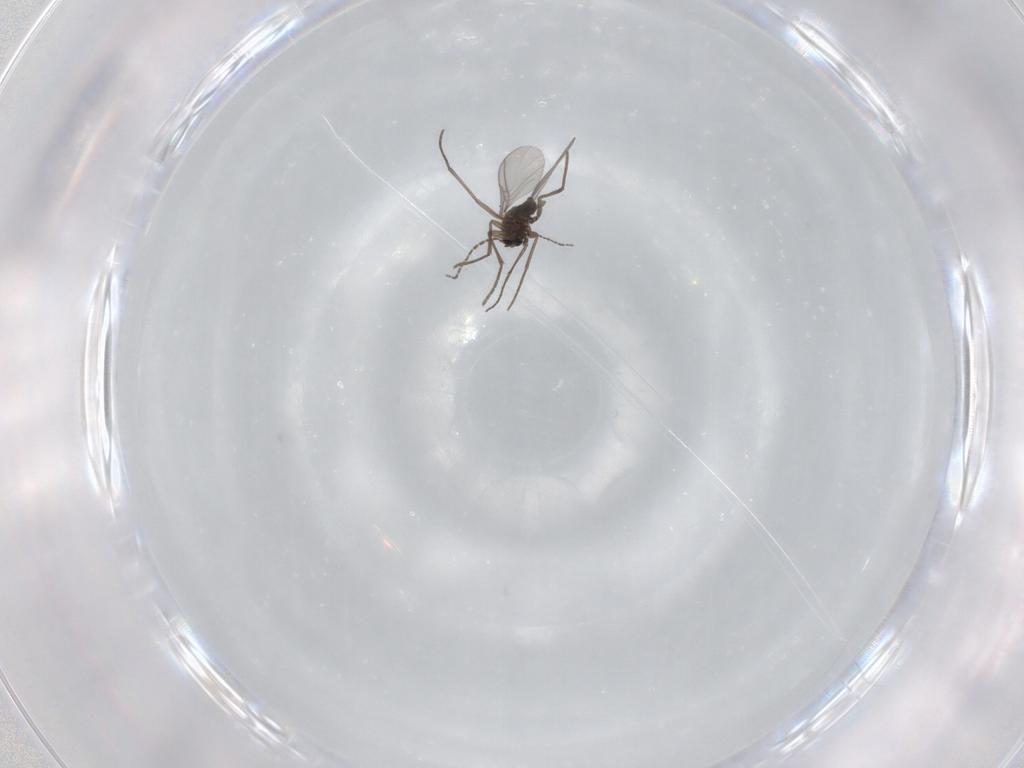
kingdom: Animalia
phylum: Arthropoda
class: Insecta
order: Diptera
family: Sciaridae
